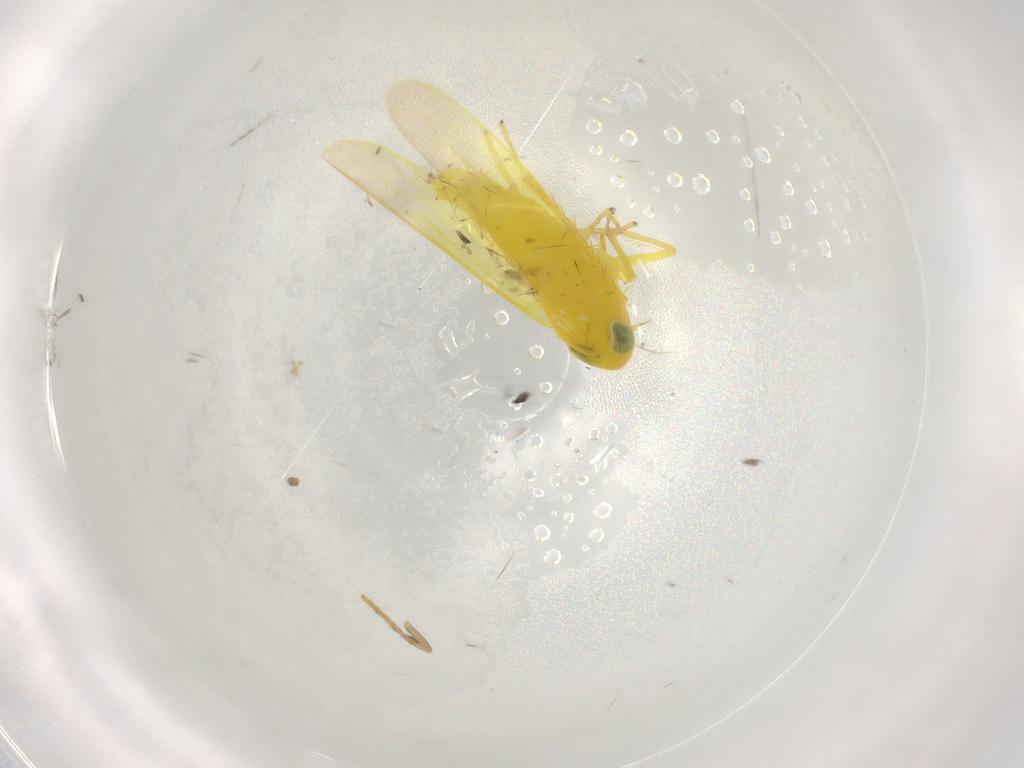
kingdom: Animalia
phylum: Arthropoda
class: Insecta
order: Hemiptera
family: Cicadellidae
